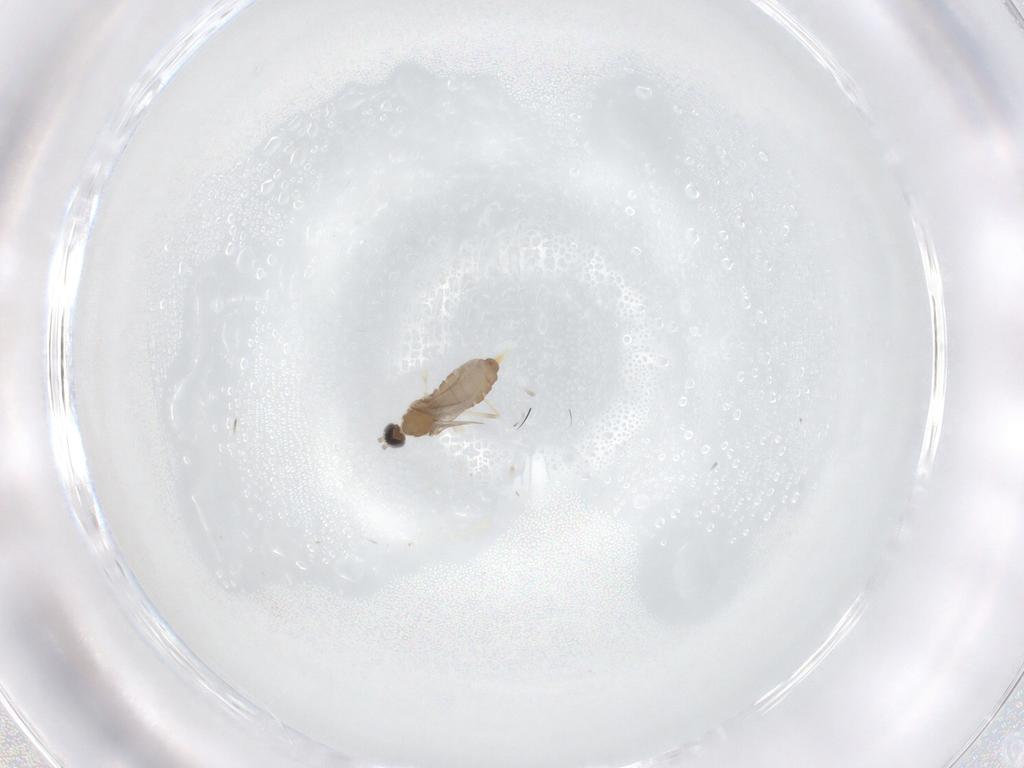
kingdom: Animalia
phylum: Arthropoda
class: Insecta
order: Diptera
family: Cecidomyiidae
